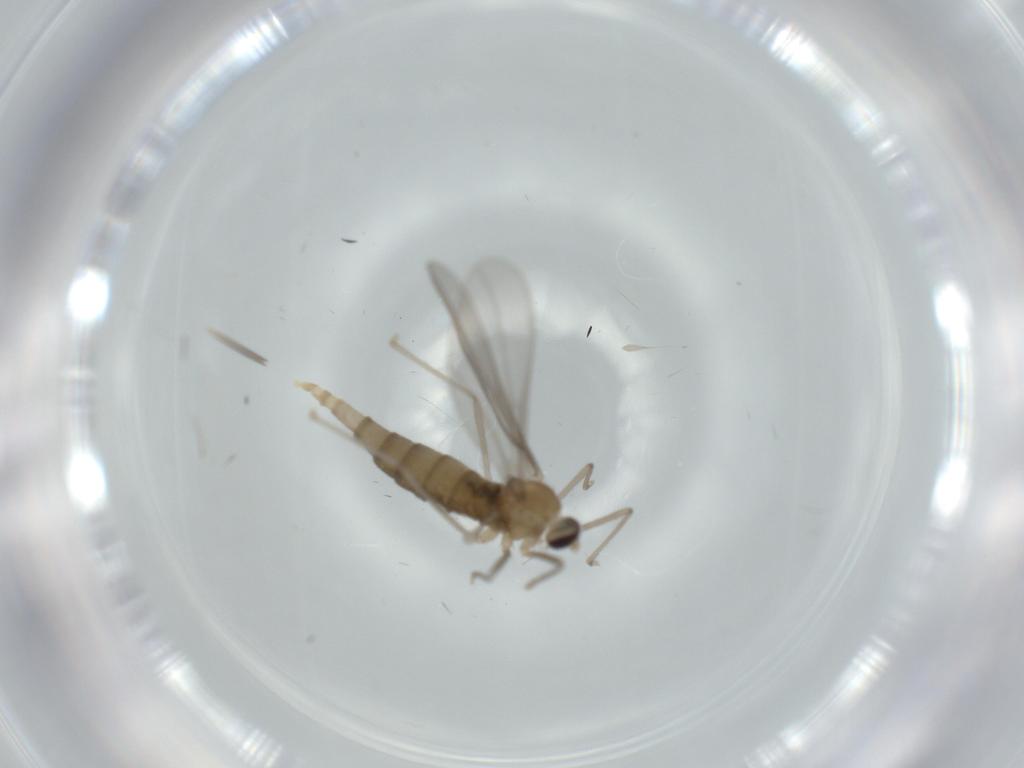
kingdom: Animalia
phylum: Arthropoda
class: Insecta
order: Diptera
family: Cecidomyiidae
